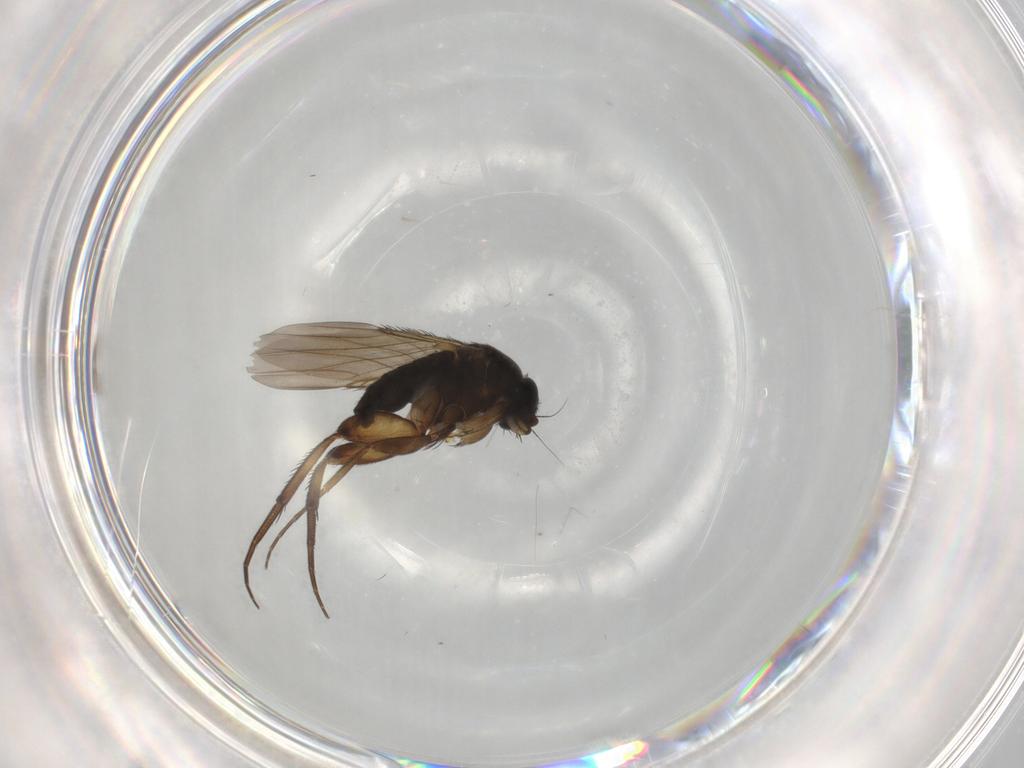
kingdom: Animalia
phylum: Arthropoda
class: Insecta
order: Diptera
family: Phoridae
